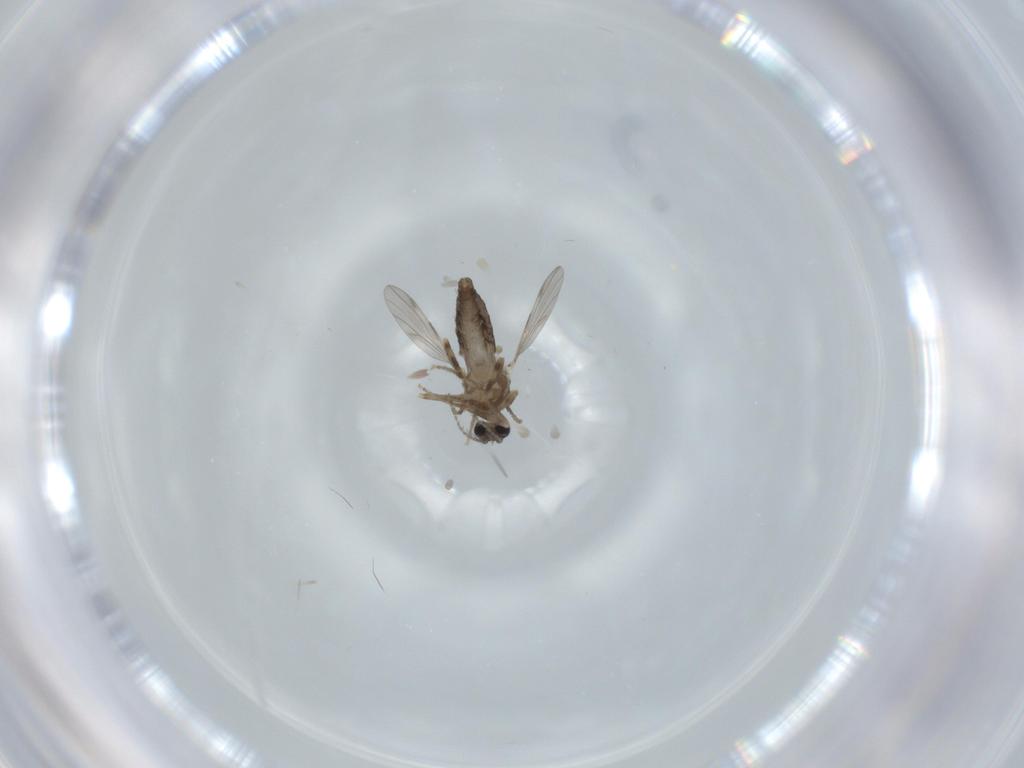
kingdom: Animalia
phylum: Arthropoda
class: Insecta
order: Diptera
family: Ceratopogonidae
